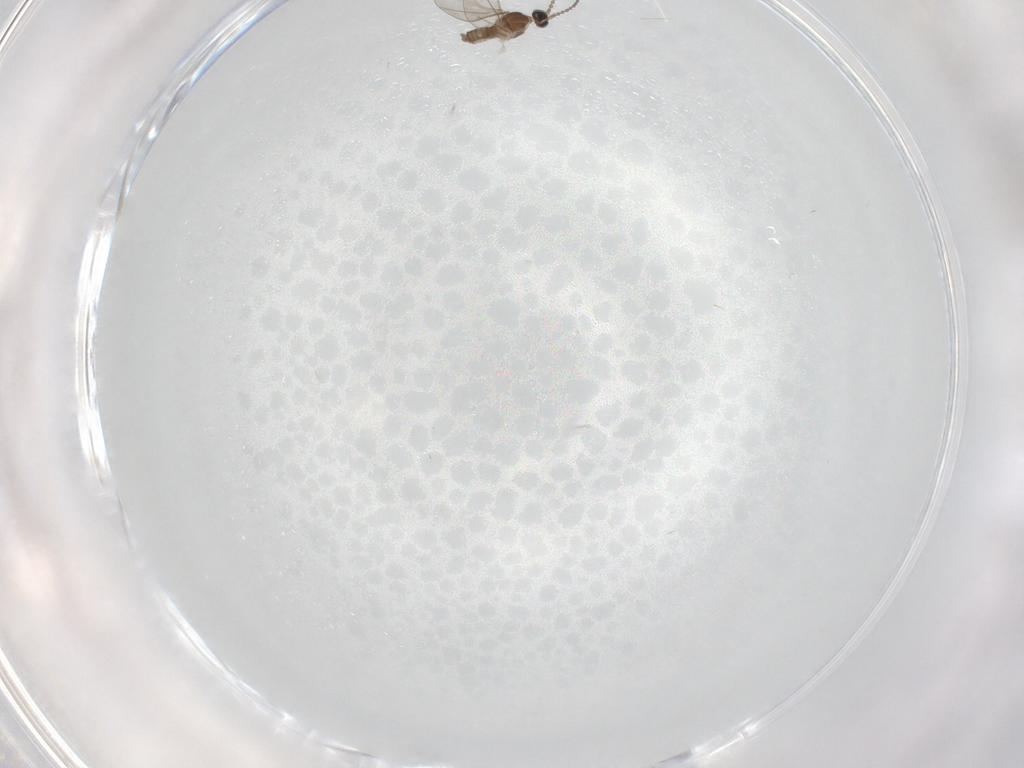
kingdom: Animalia
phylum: Arthropoda
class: Insecta
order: Diptera
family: Cecidomyiidae
